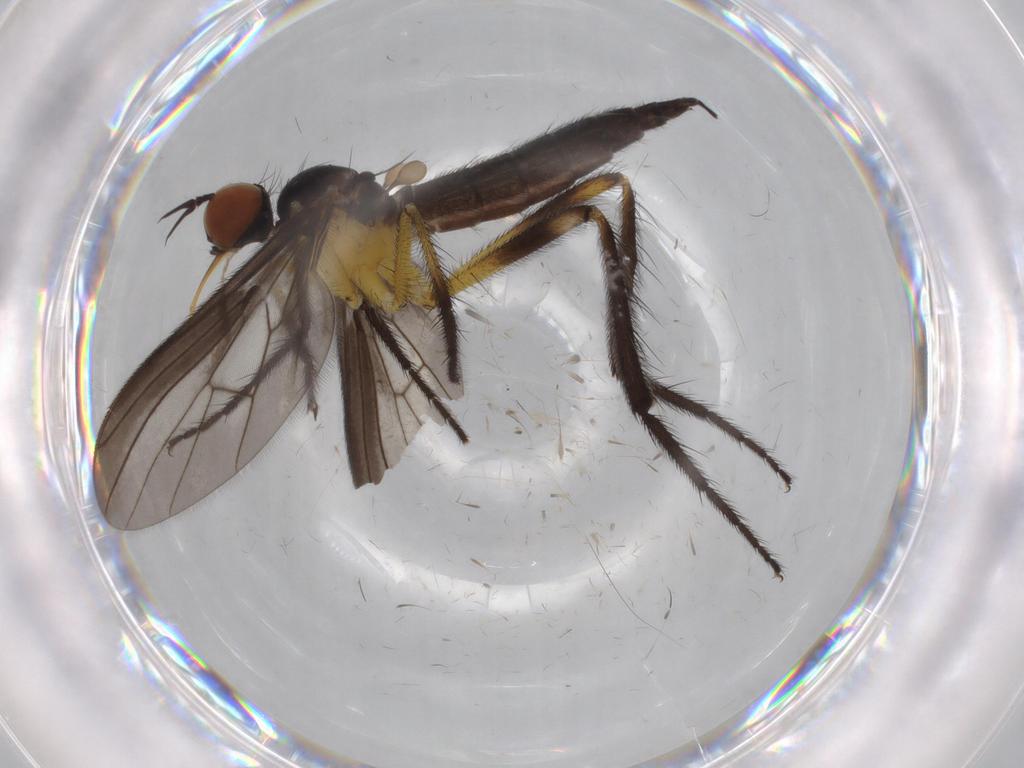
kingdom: Animalia
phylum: Arthropoda
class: Insecta
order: Diptera
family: Empididae
